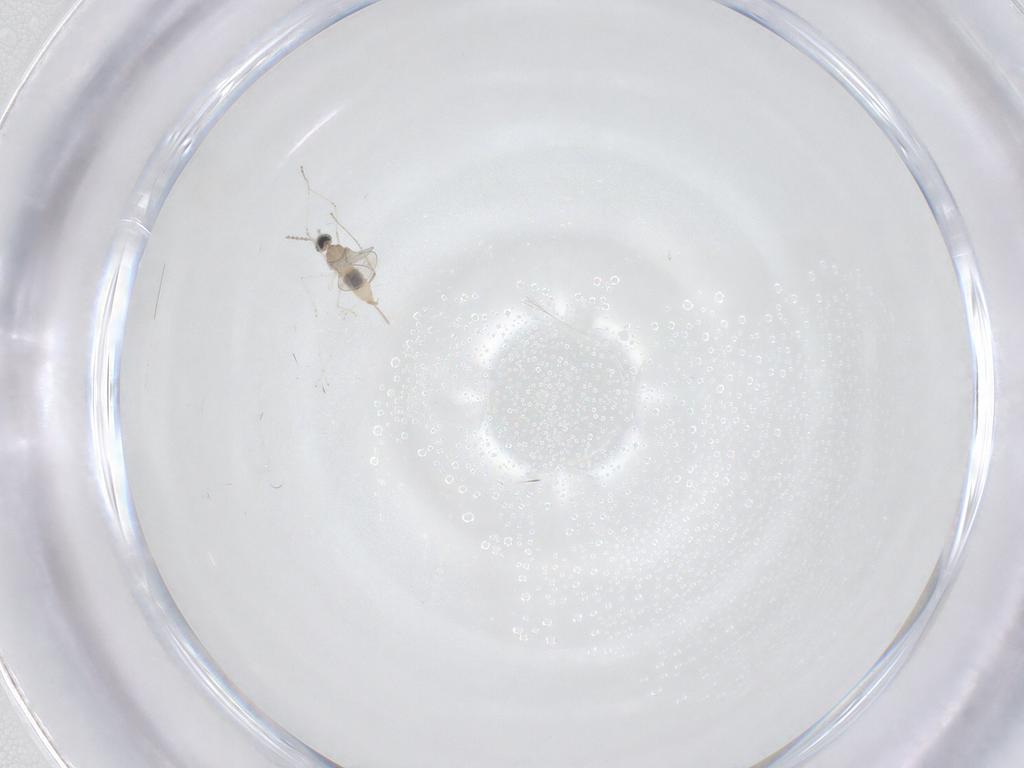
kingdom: Animalia
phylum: Arthropoda
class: Insecta
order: Diptera
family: Cecidomyiidae
